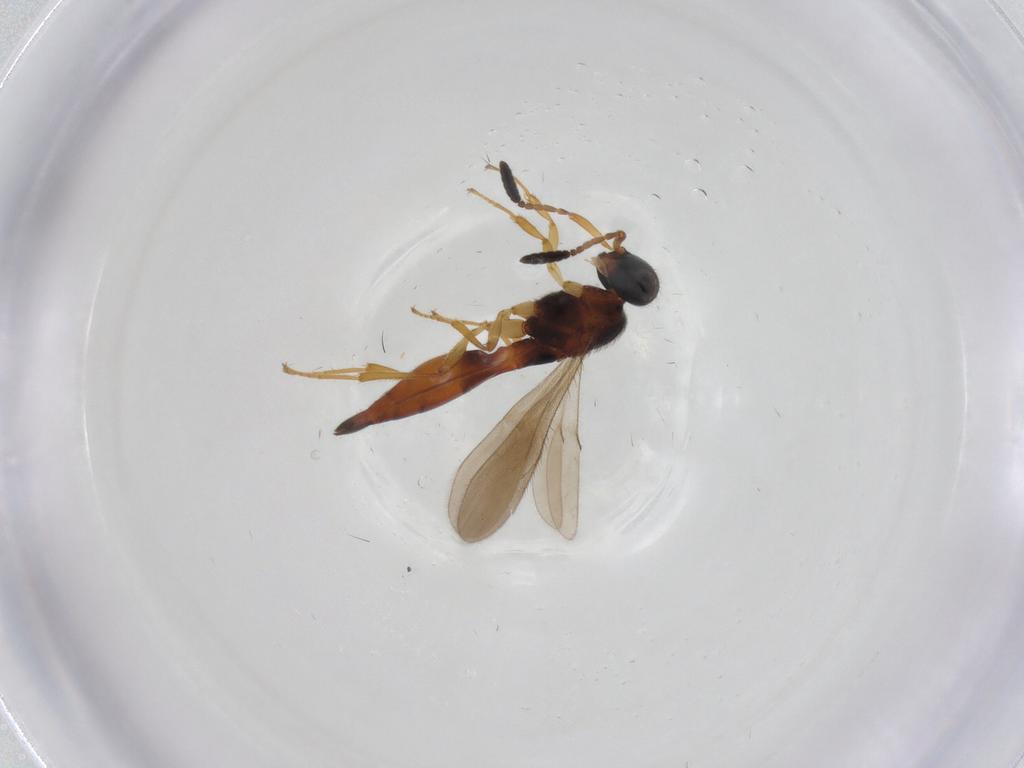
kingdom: Animalia
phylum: Arthropoda
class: Insecta
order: Hymenoptera
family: Scelionidae
